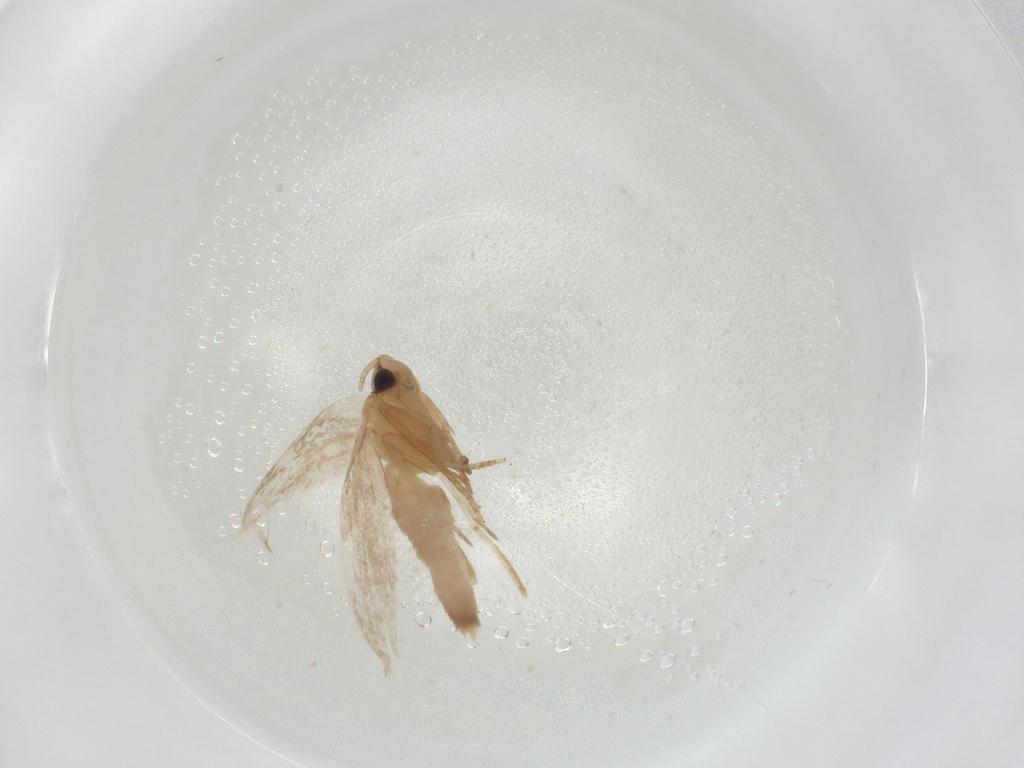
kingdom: Animalia
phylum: Arthropoda
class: Insecta
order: Lepidoptera
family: Tineidae
